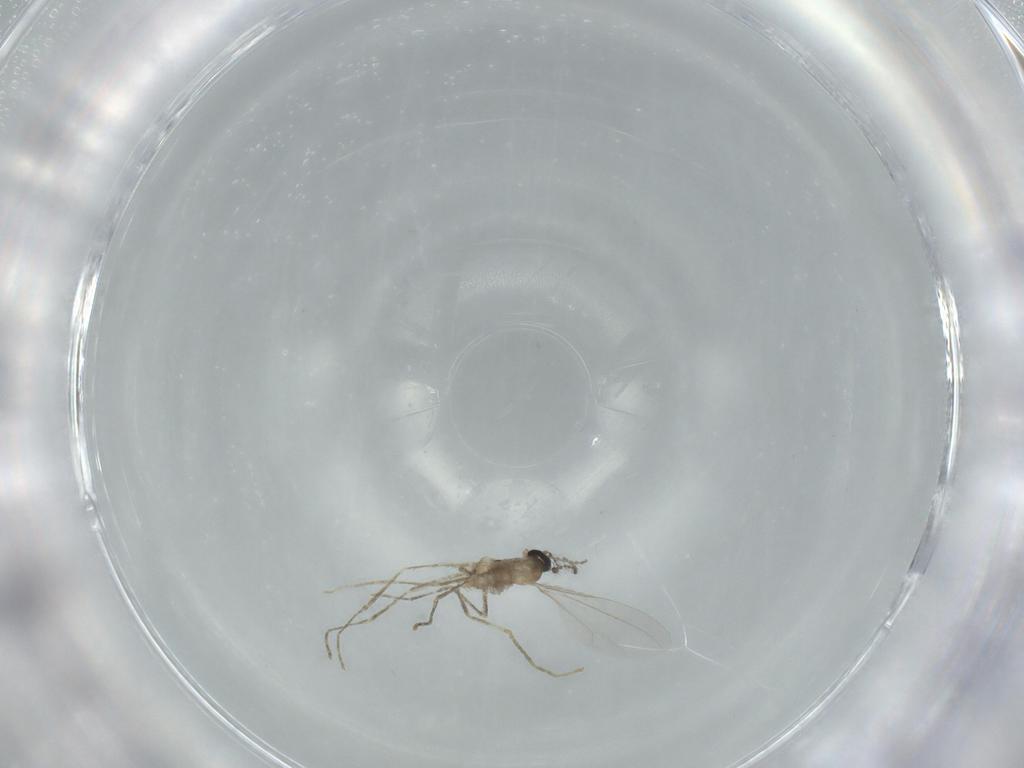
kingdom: Animalia
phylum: Arthropoda
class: Insecta
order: Diptera
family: Cecidomyiidae
